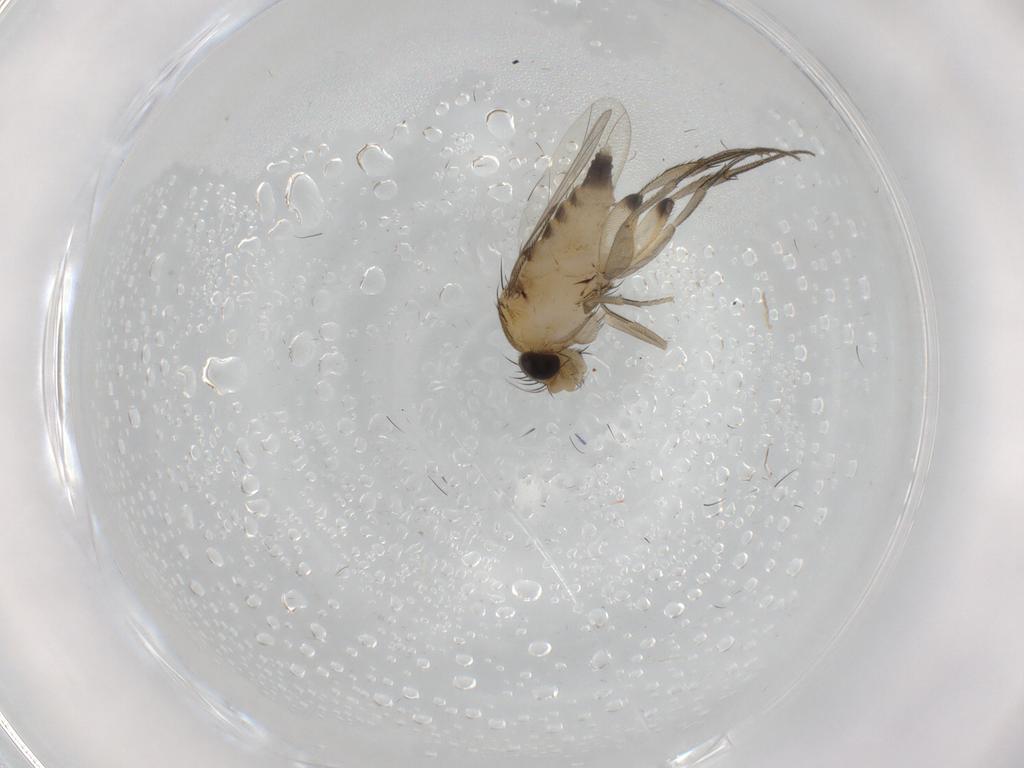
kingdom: Animalia
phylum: Arthropoda
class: Insecta
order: Diptera
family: Phoridae
